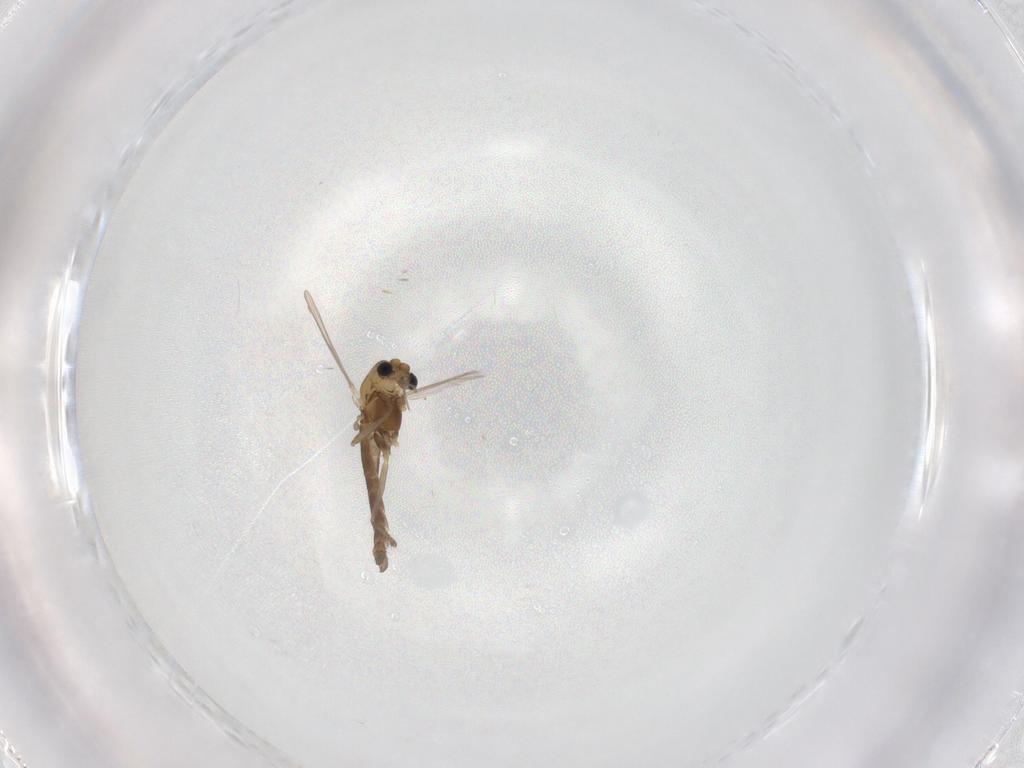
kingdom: Animalia
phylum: Arthropoda
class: Insecta
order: Diptera
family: Chironomidae
